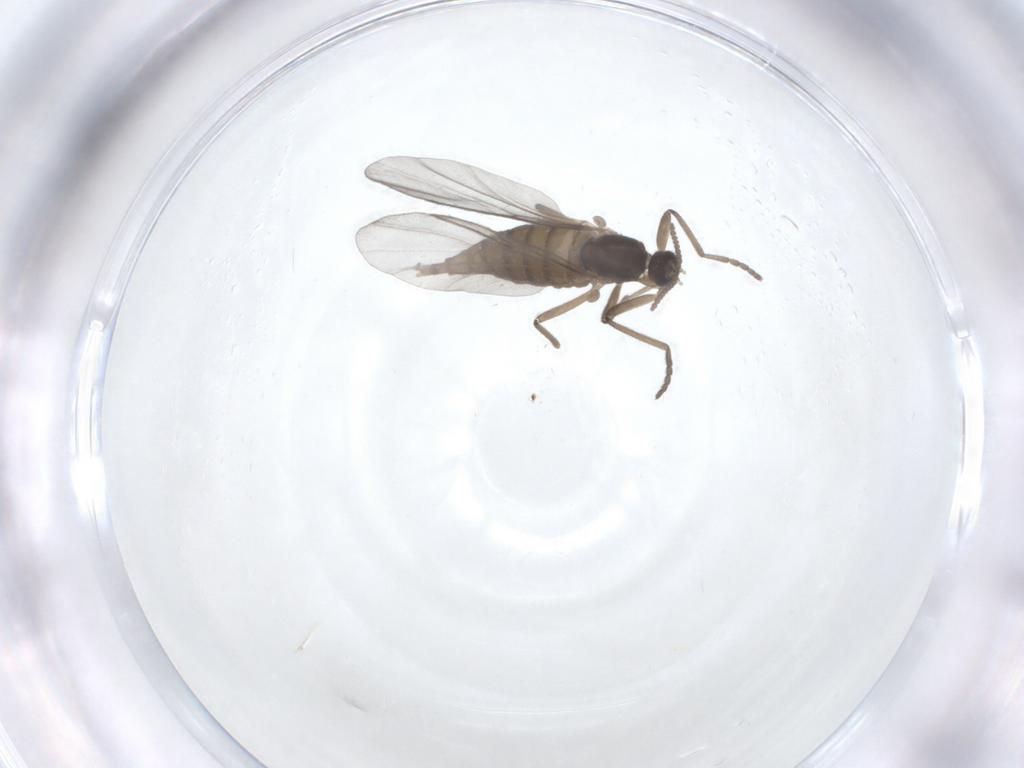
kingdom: Animalia
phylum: Arthropoda
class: Insecta
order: Diptera
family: Cecidomyiidae
